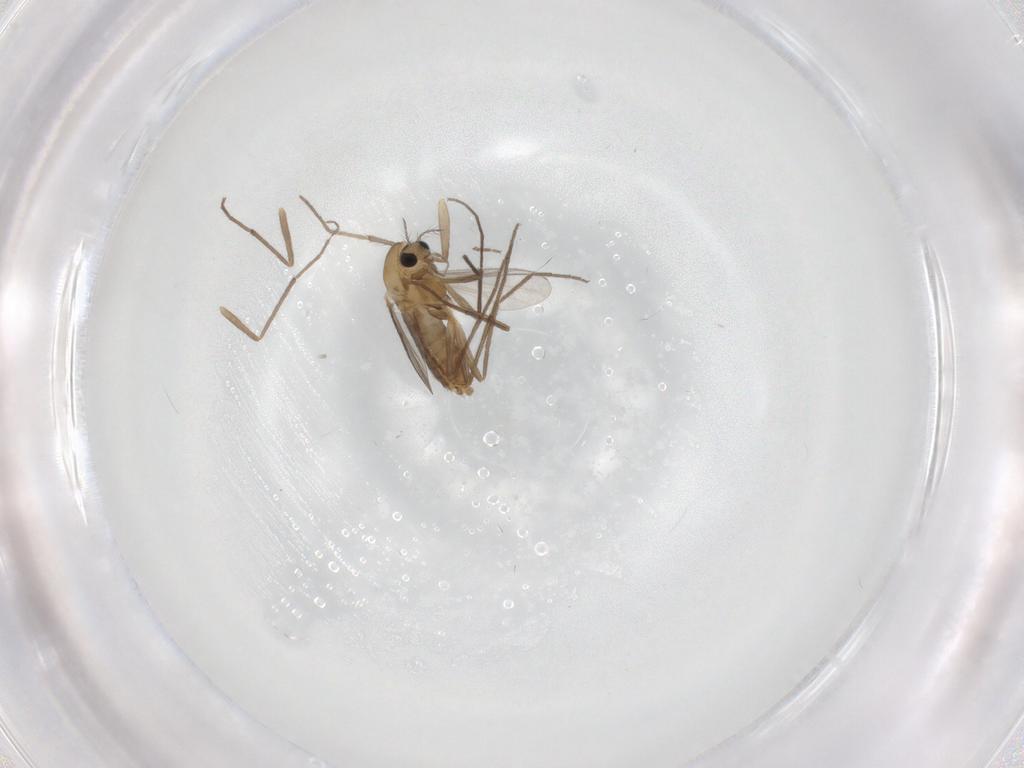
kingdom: Animalia
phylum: Arthropoda
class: Insecta
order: Diptera
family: Chironomidae
